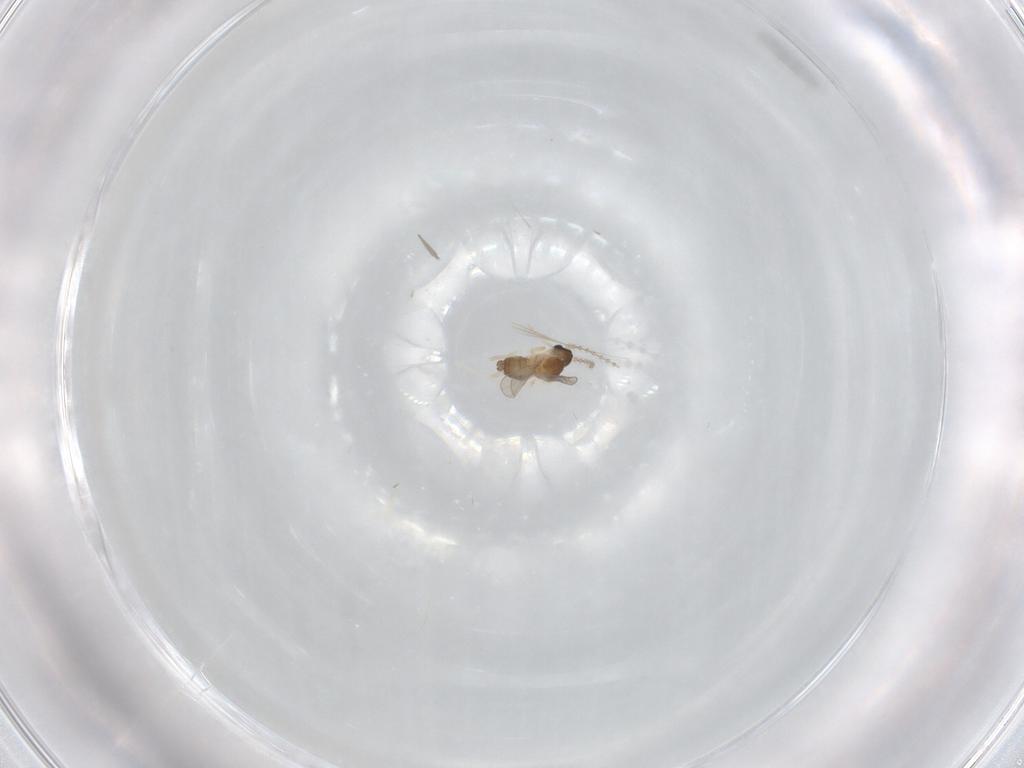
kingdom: Animalia
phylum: Arthropoda
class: Insecta
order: Diptera
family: Cecidomyiidae
